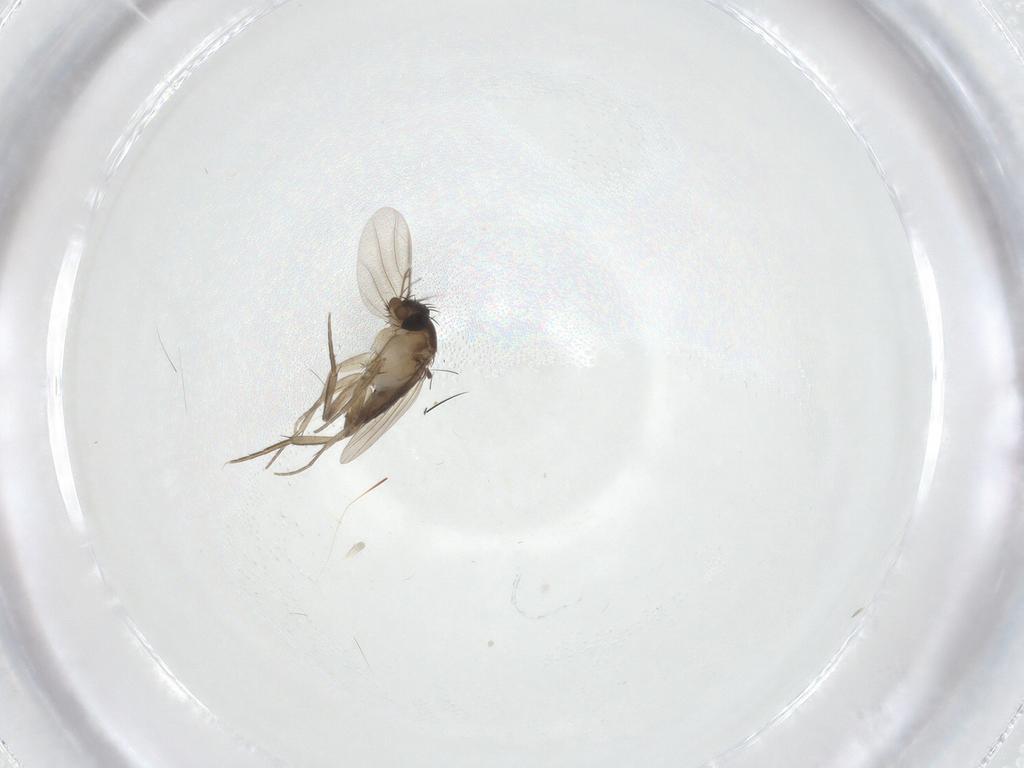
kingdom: Animalia
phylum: Arthropoda
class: Insecta
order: Diptera
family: Phoridae
